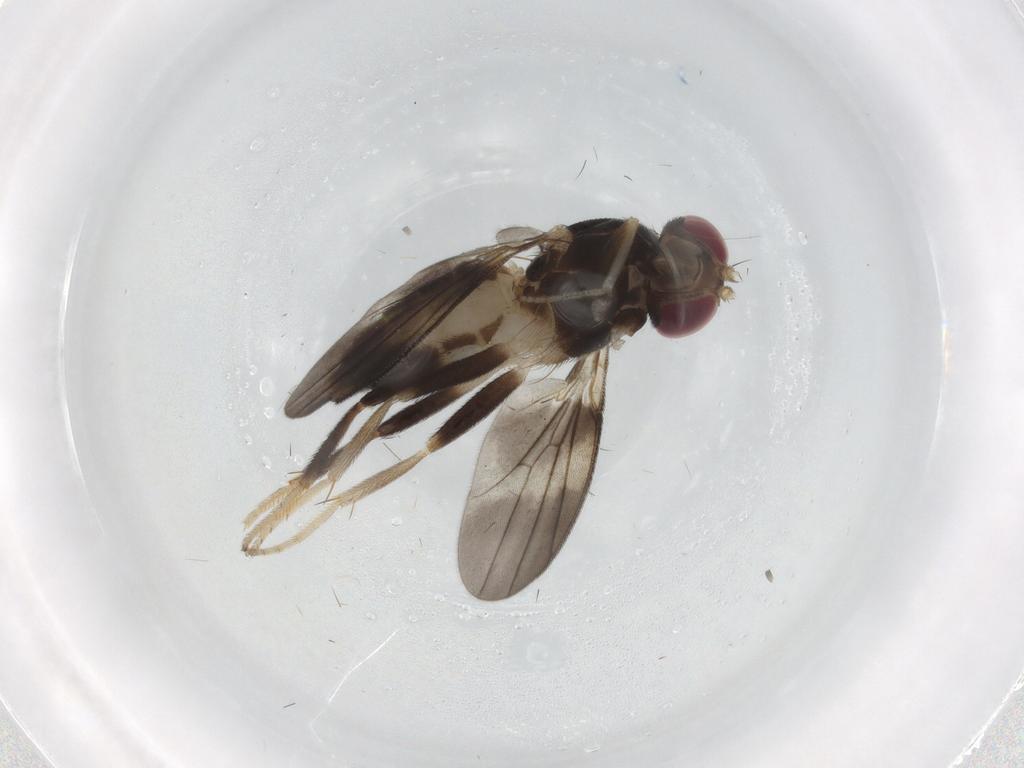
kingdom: Animalia
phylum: Arthropoda
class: Insecta
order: Diptera
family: Clusiidae
